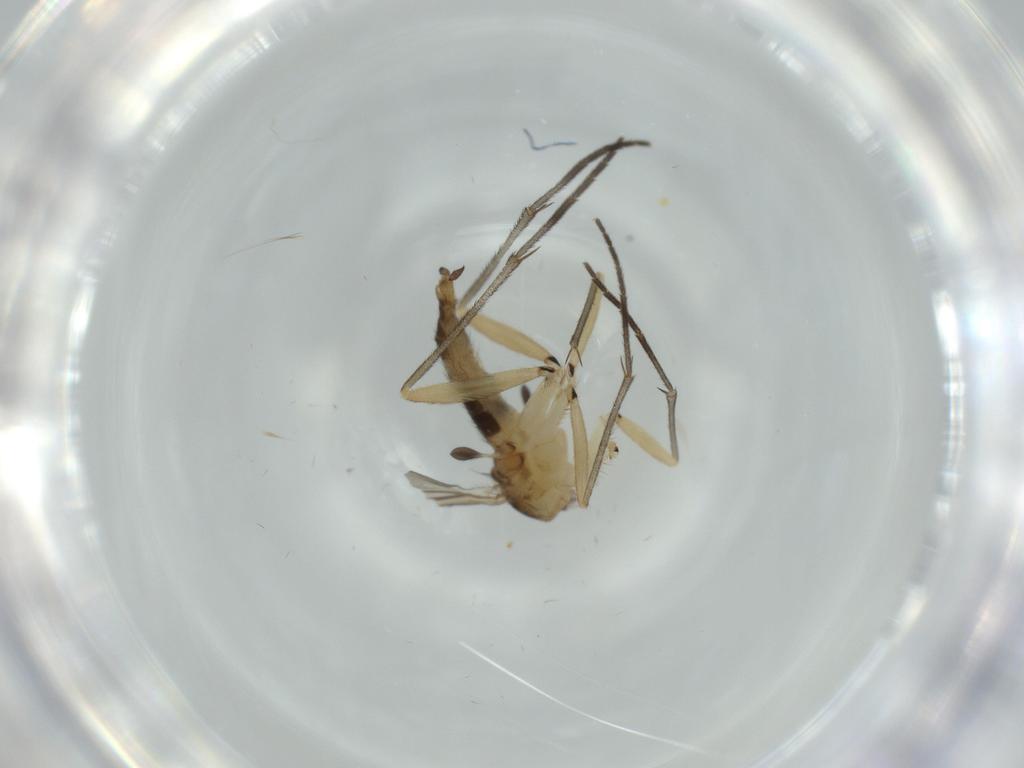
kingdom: Animalia
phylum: Arthropoda
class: Insecta
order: Diptera
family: Sciaridae
